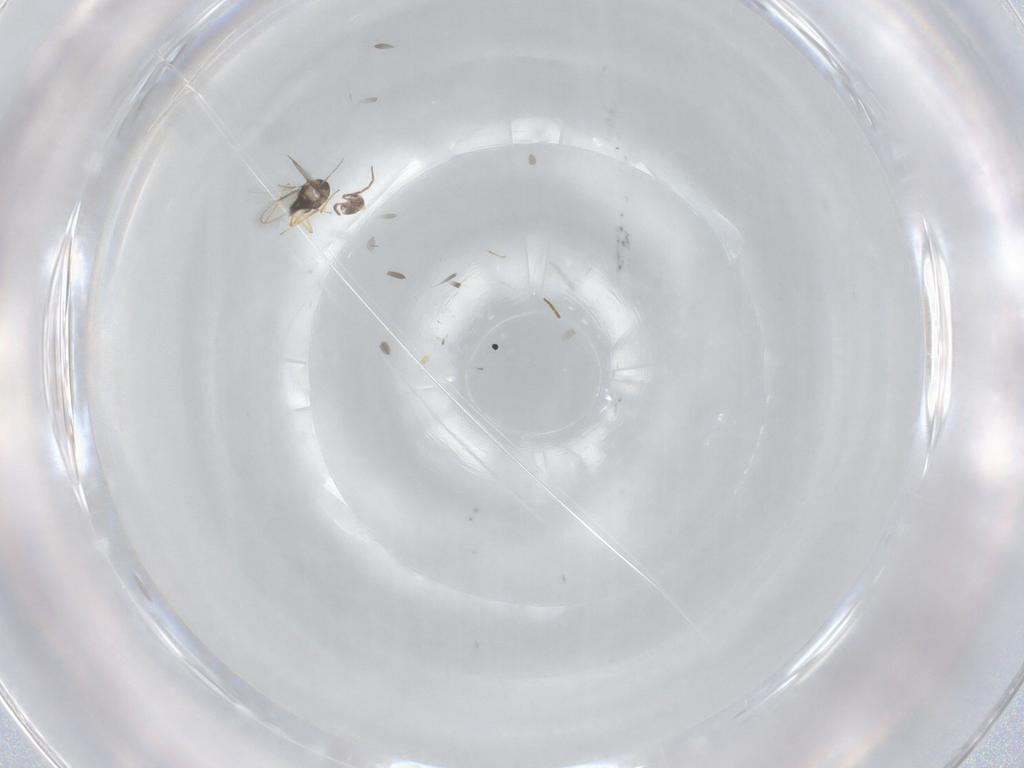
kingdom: Animalia
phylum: Arthropoda
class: Insecta
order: Hymenoptera
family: Aphelinidae
